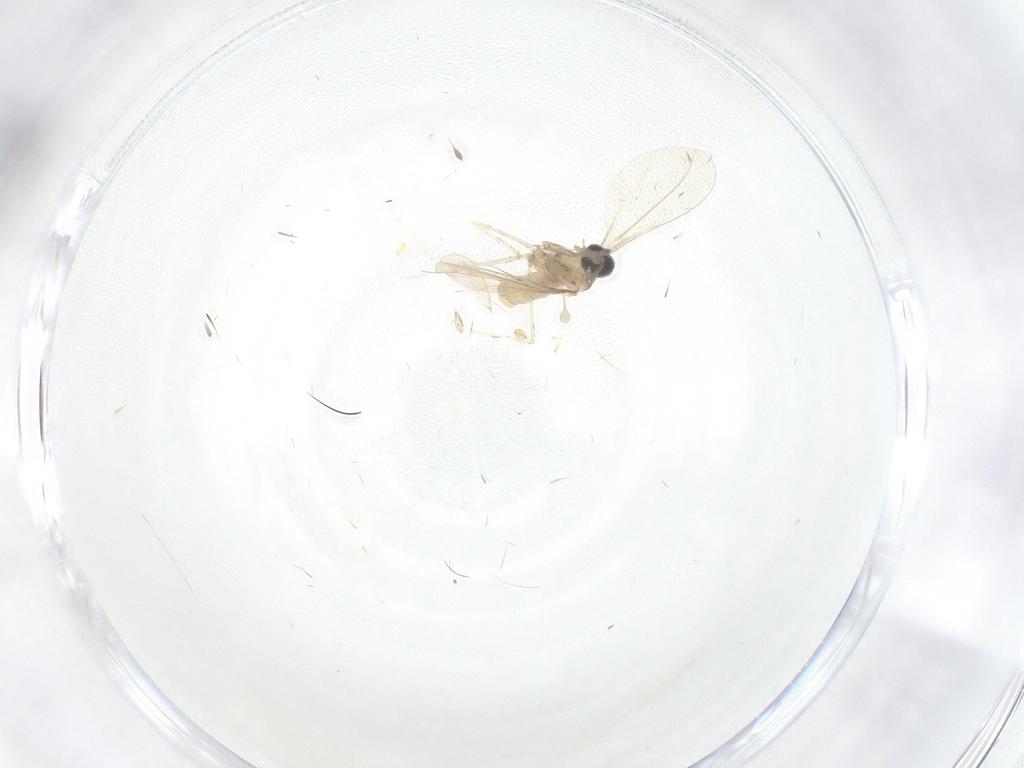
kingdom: Animalia
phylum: Arthropoda
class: Insecta
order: Diptera
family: Cecidomyiidae
